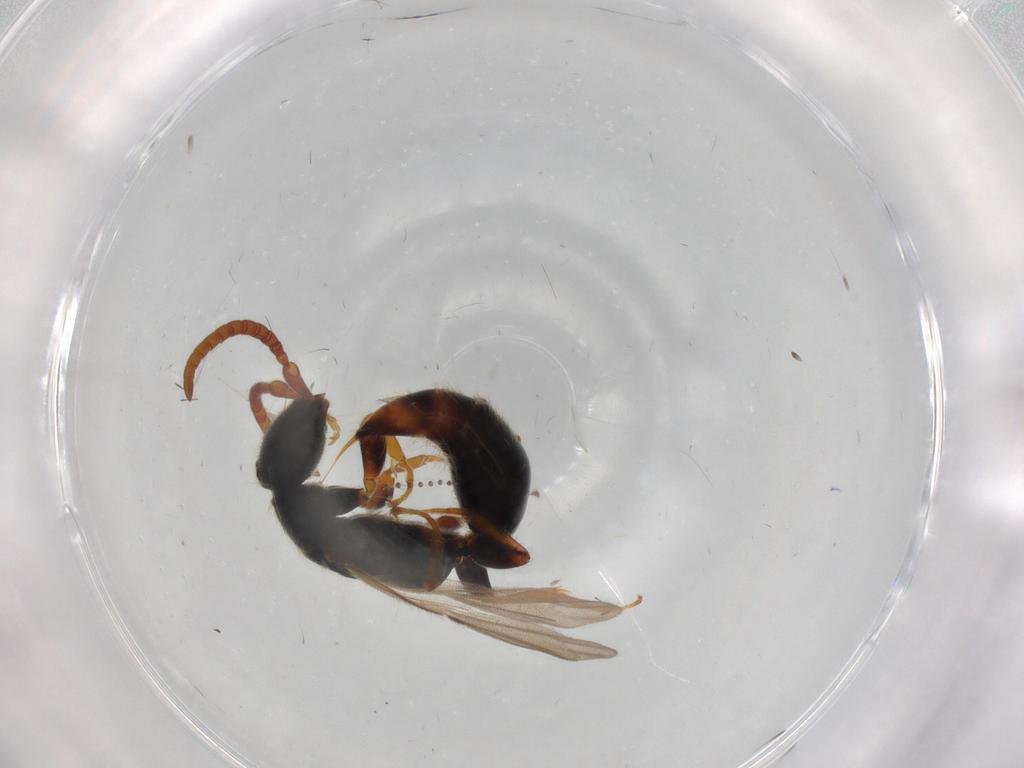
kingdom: Animalia
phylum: Arthropoda
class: Insecta
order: Hymenoptera
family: Bethylidae
